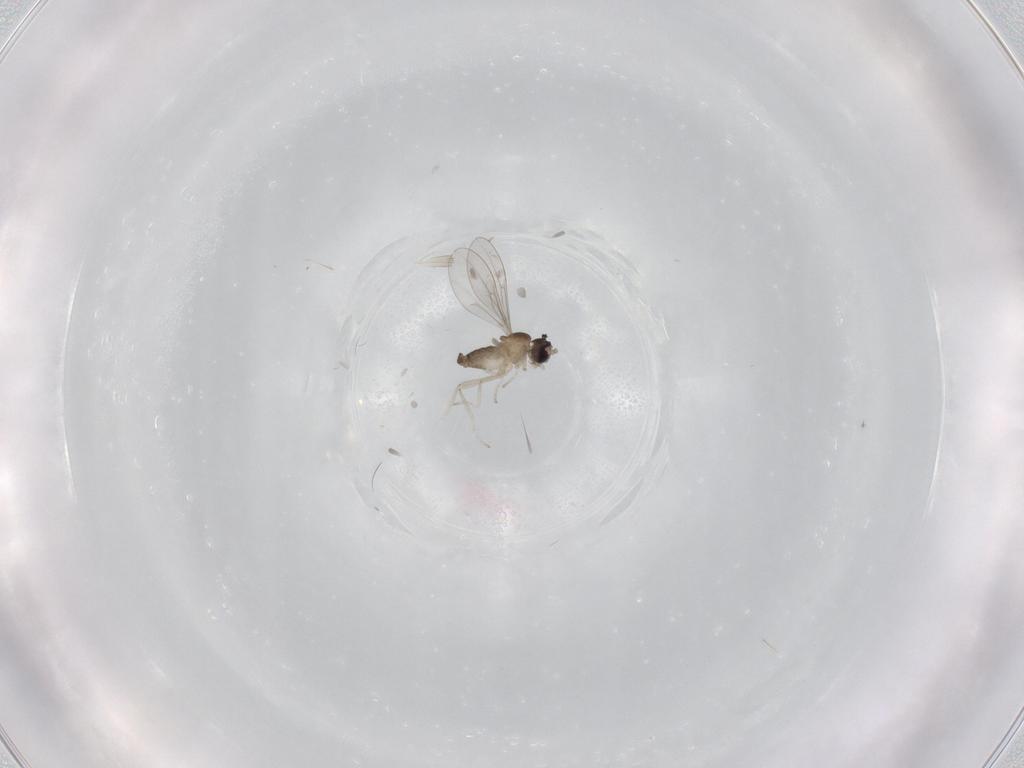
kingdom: Animalia
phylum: Arthropoda
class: Insecta
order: Diptera
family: Cecidomyiidae
